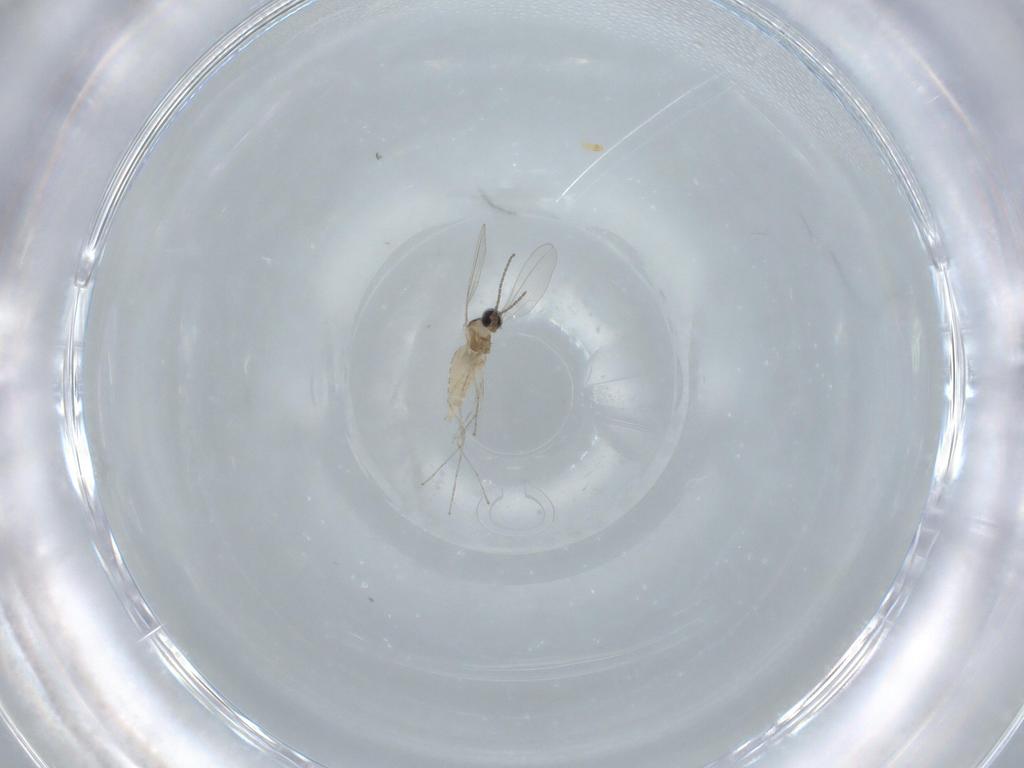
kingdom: Animalia
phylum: Arthropoda
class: Insecta
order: Diptera
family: Cecidomyiidae
